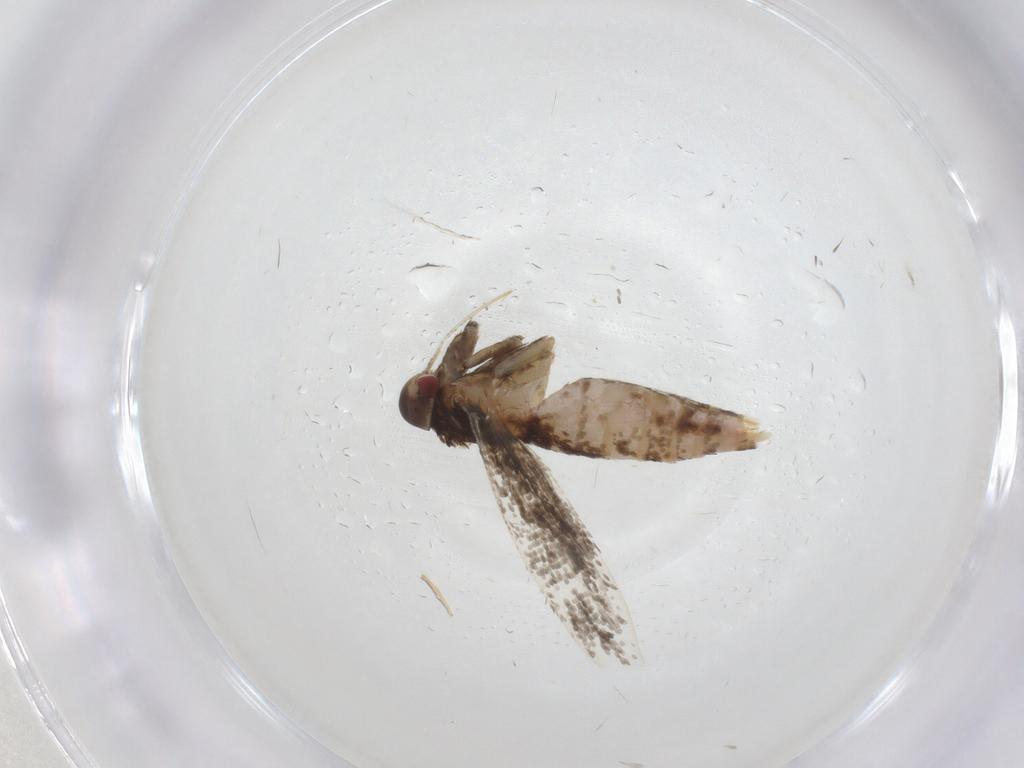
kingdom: Animalia
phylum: Arthropoda
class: Insecta
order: Lepidoptera
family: Cosmopterigidae
